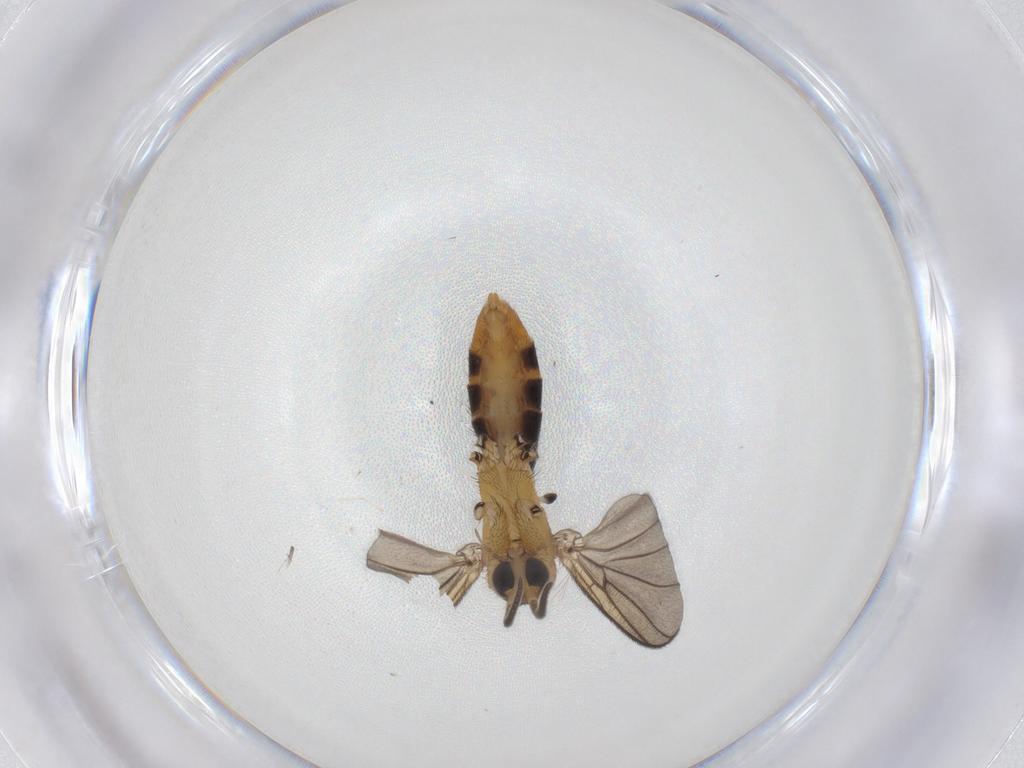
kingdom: Animalia
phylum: Arthropoda
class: Insecta
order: Diptera
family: Mycetophilidae
